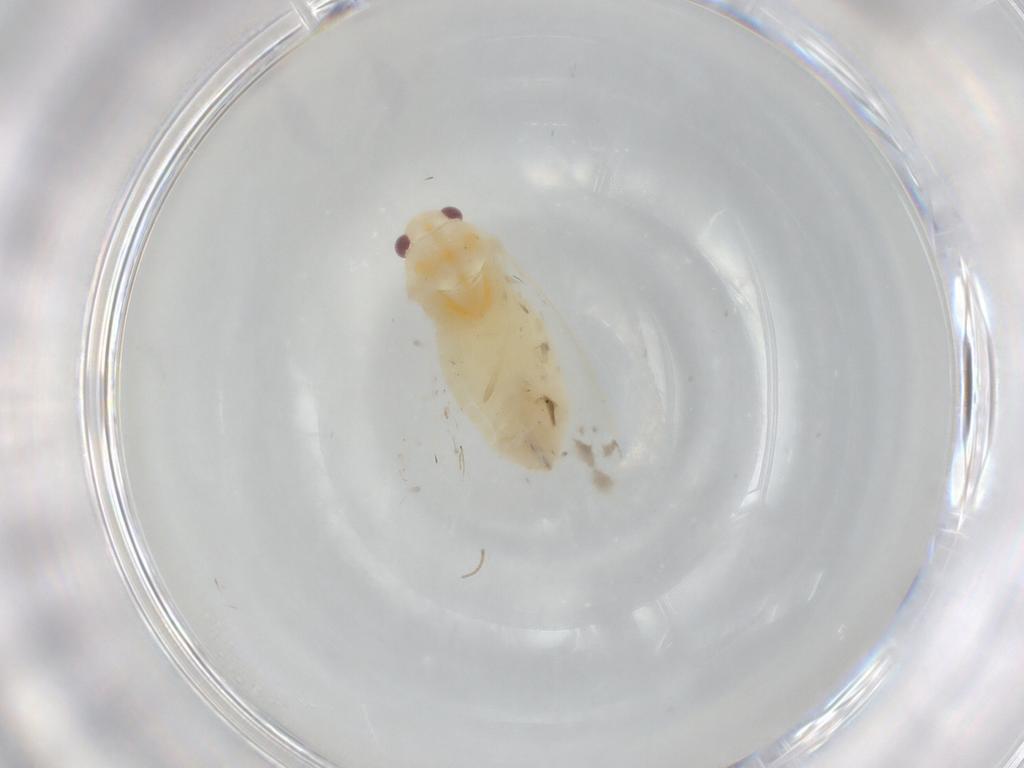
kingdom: Animalia
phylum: Arthropoda
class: Insecta
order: Hemiptera
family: Miridae
